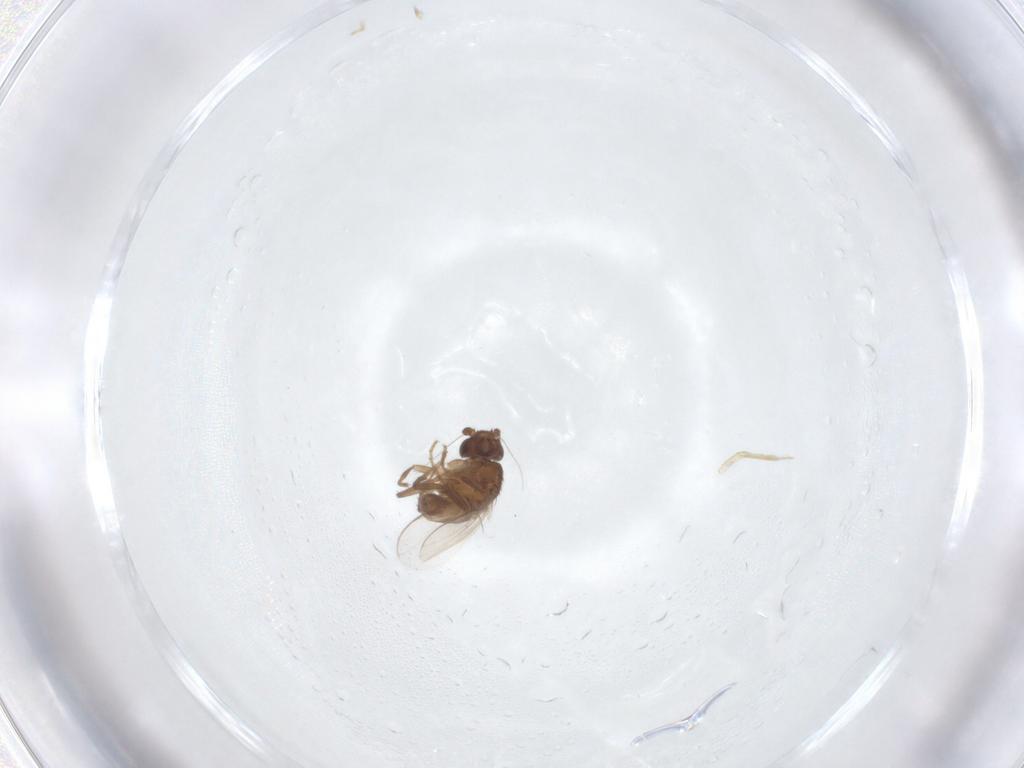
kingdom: Animalia
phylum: Arthropoda
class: Insecta
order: Diptera
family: Sphaeroceridae
